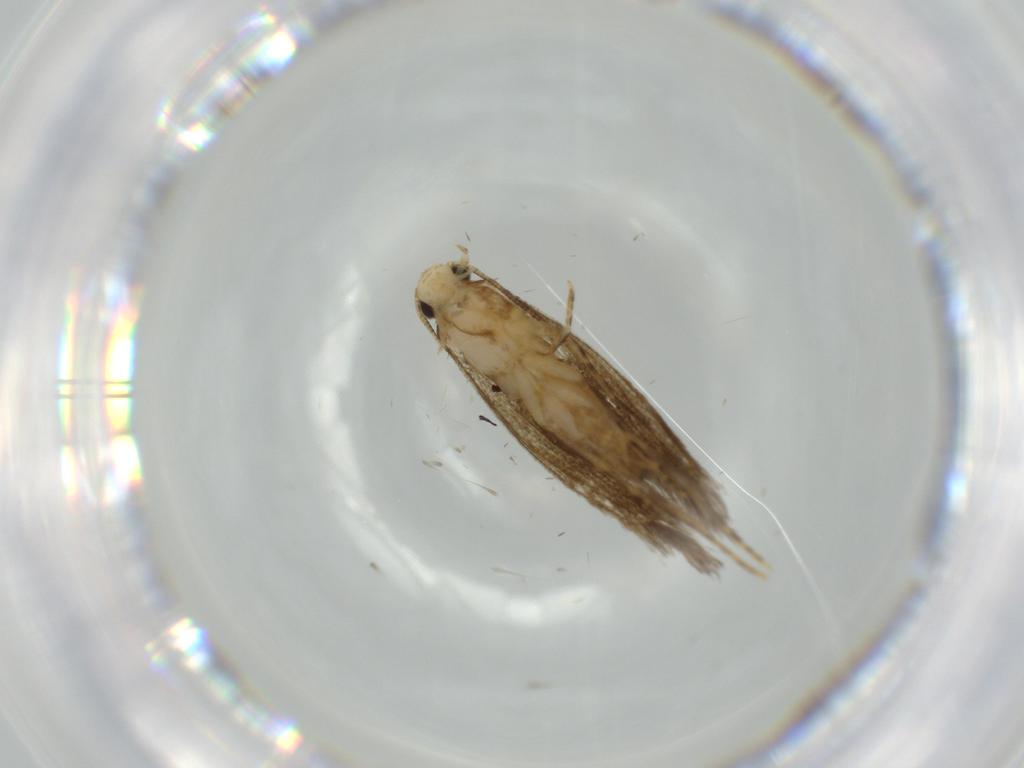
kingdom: Animalia
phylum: Arthropoda
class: Insecta
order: Lepidoptera
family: Tineidae
